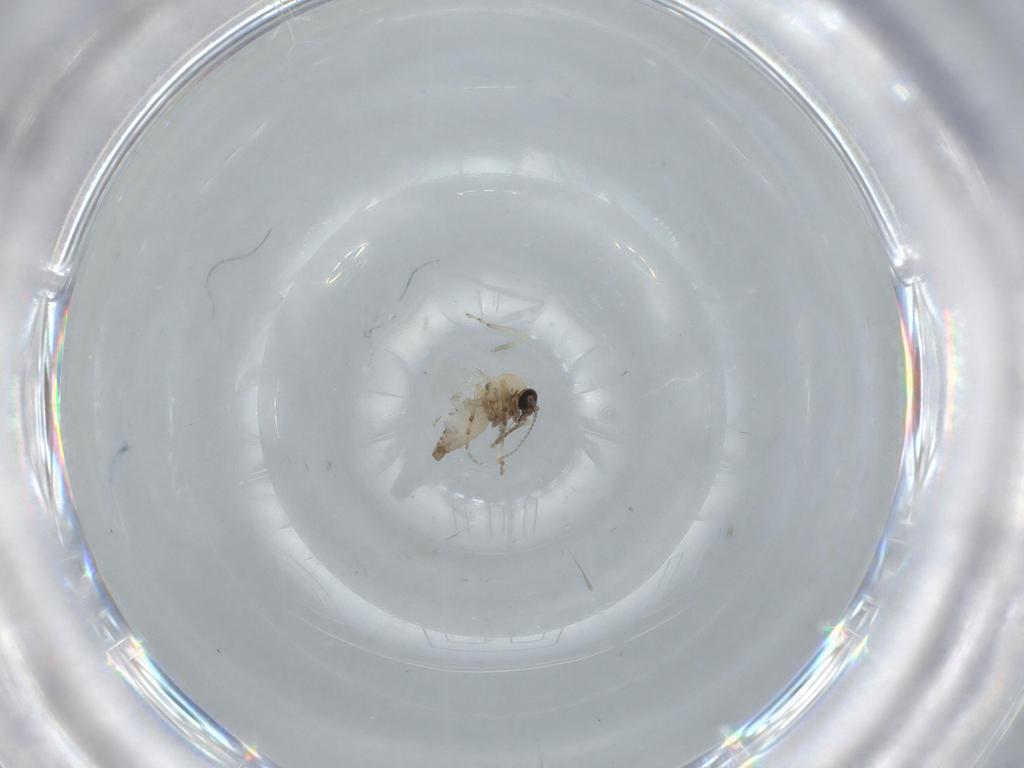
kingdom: Animalia
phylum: Arthropoda
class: Insecta
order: Diptera
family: Ceratopogonidae
